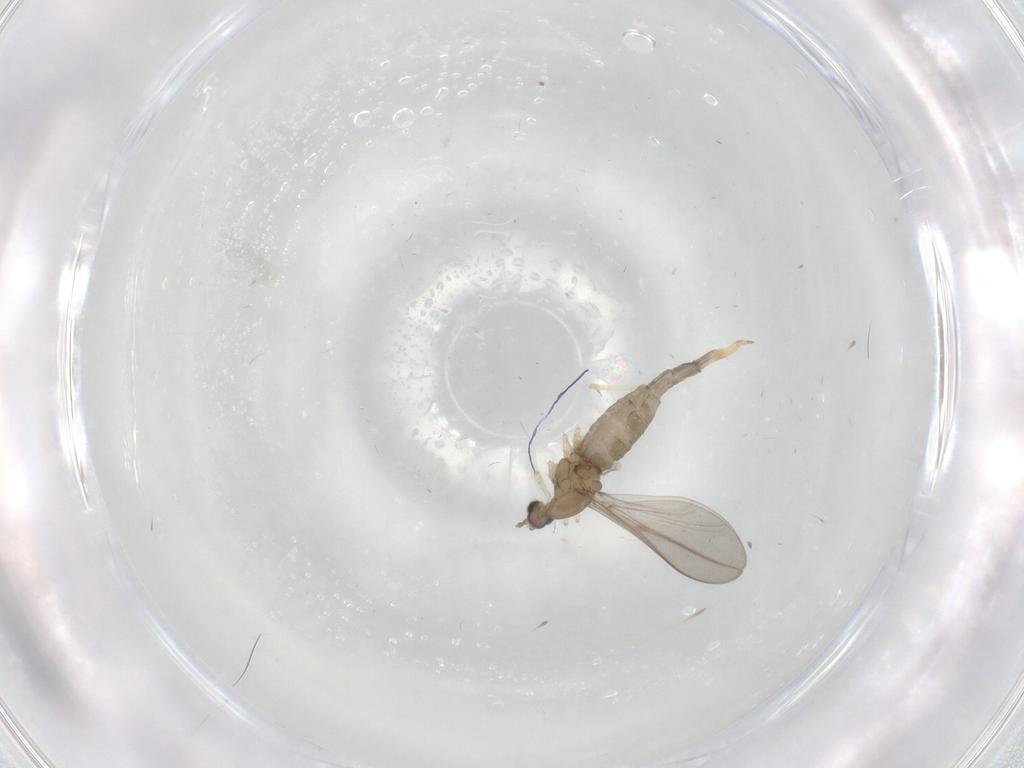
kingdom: Animalia
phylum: Arthropoda
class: Insecta
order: Diptera
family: Cecidomyiidae
